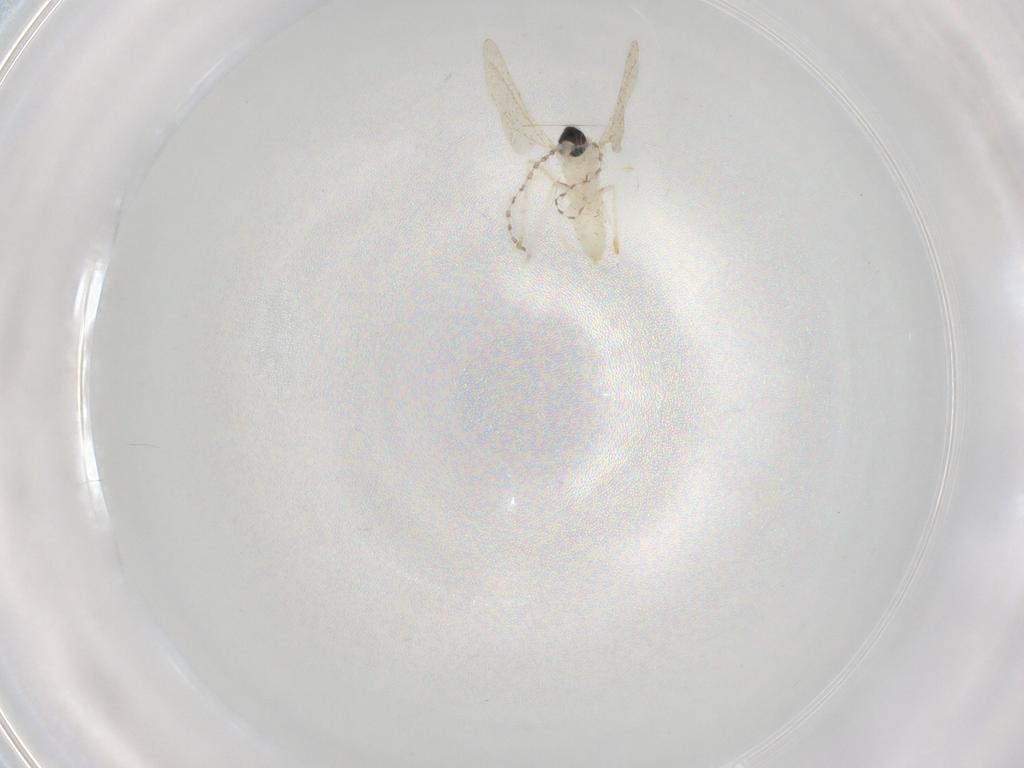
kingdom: Animalia
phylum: Arthropoda
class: Insecta
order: Diptera
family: Cecidomyiidae
